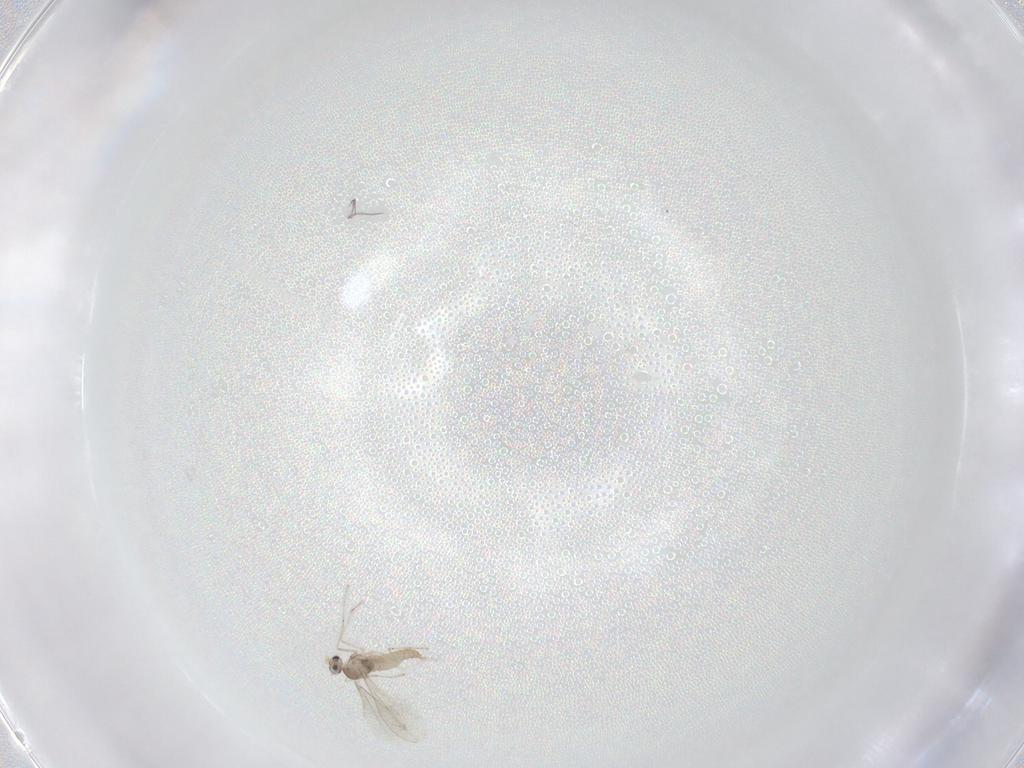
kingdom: Animalia
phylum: Arthropoda
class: Insecta
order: Diptera
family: Cecidomyiidae
